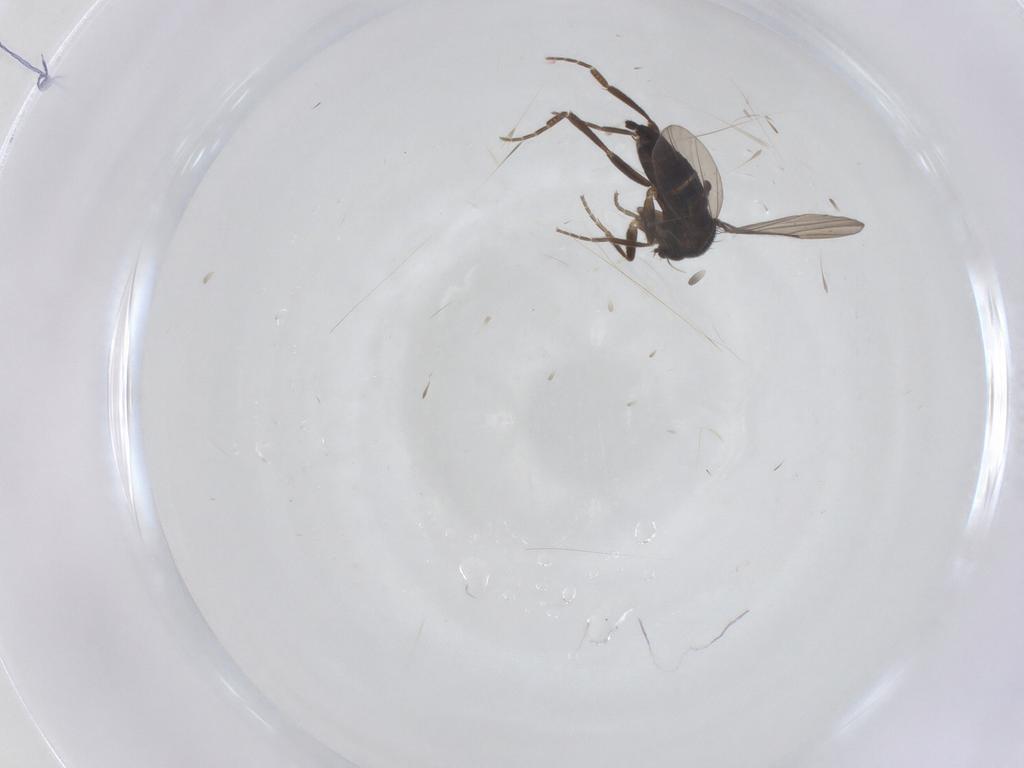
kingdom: Animalia
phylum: Arthropoda
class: Insecta
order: Diptera
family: Phoridae
